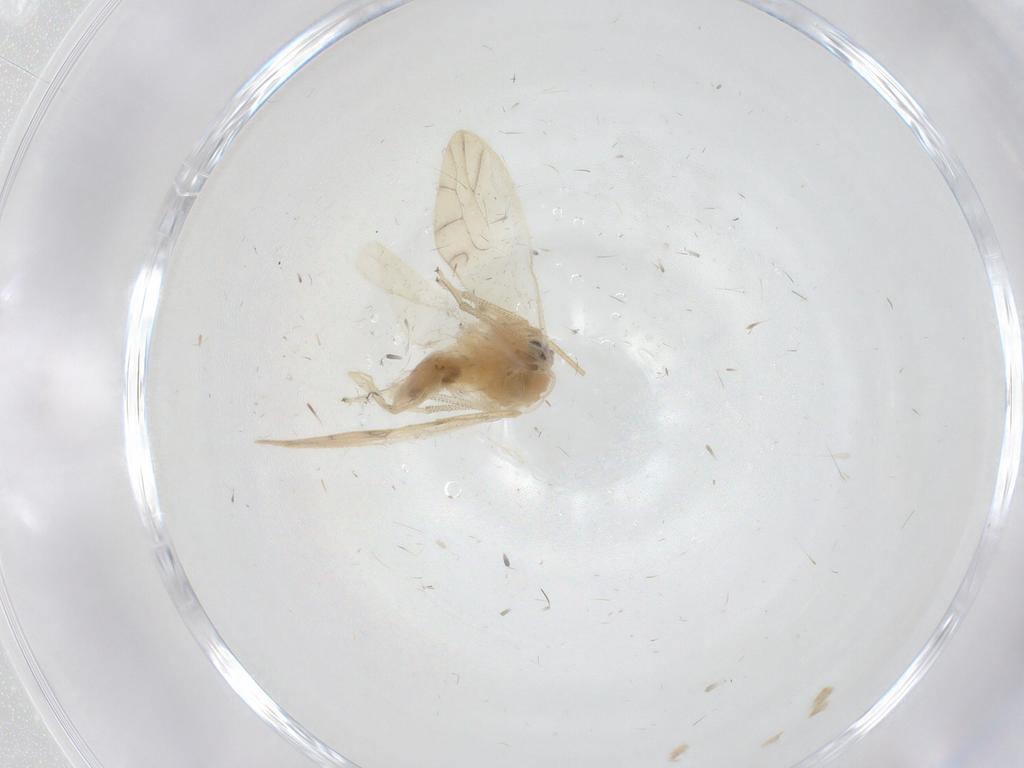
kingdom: Animalia
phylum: Arthropoda
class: Insecta
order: Psocodea
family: Caeciliusidae
